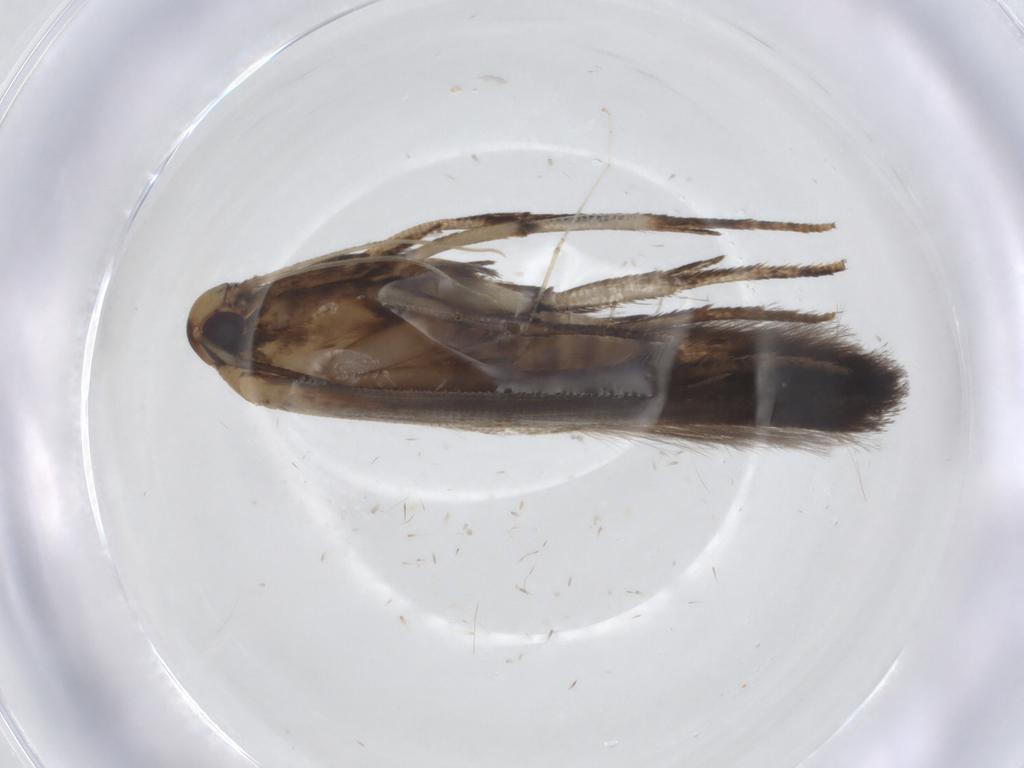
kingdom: Animalia
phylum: Arthropoda
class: Insecta
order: Lepidoptera
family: Cosmopterigidae
